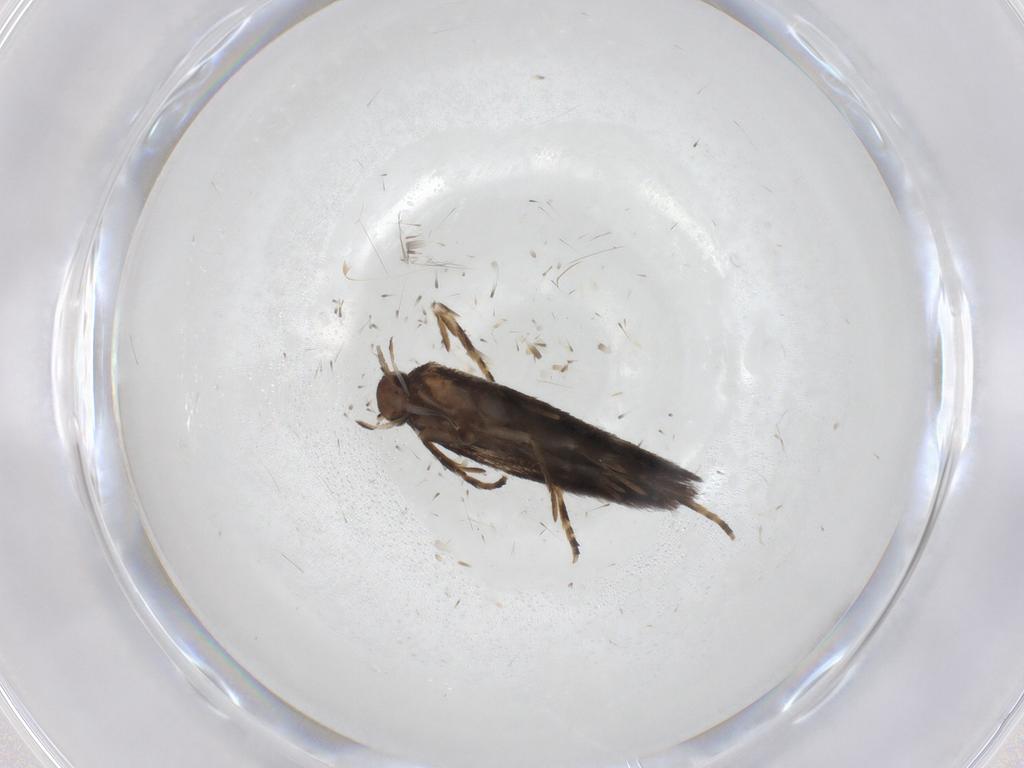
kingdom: Animalia
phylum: Arthropoda
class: Insecta
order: Lepidoptera
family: Elachistidae
